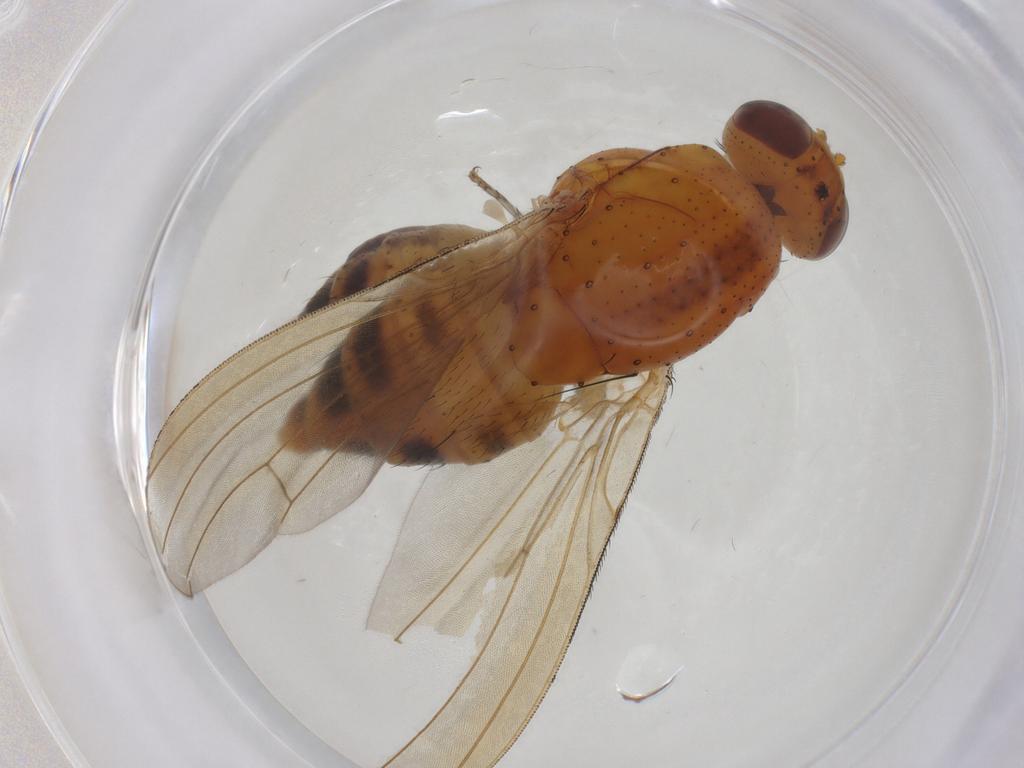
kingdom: Animalia
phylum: Arthropoda
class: Insecta
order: Diptera
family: Lauxaniidae
